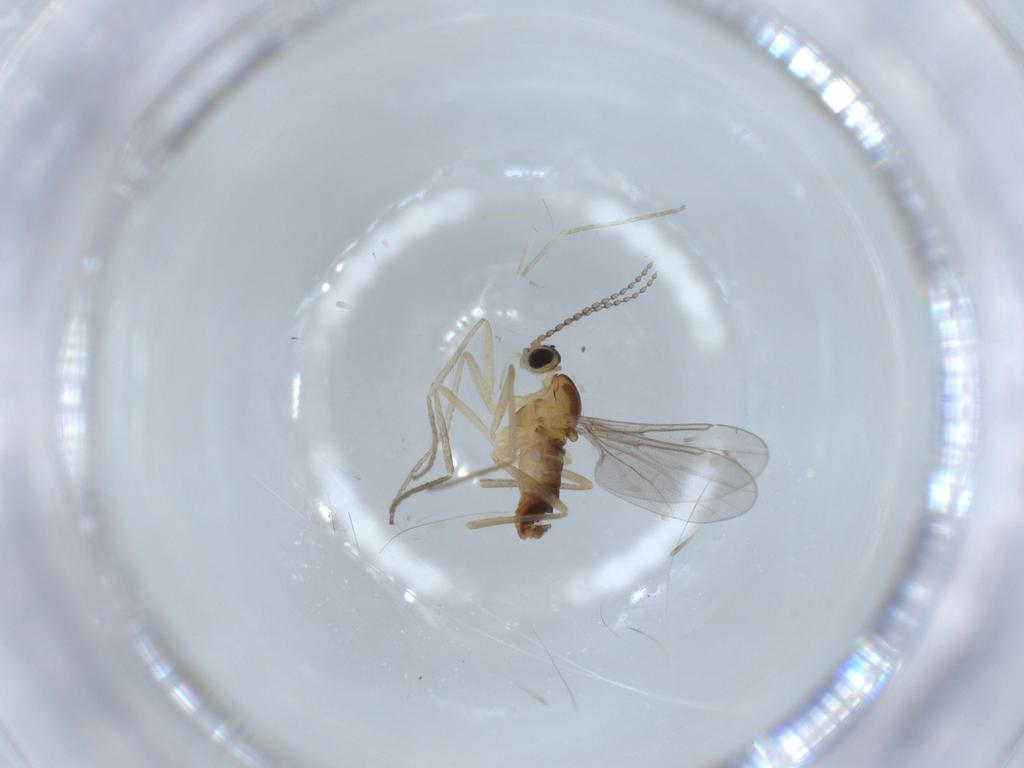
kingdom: Animalia
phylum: Arthropoda
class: Insecta
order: Diptera
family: Cecidomyiidae
